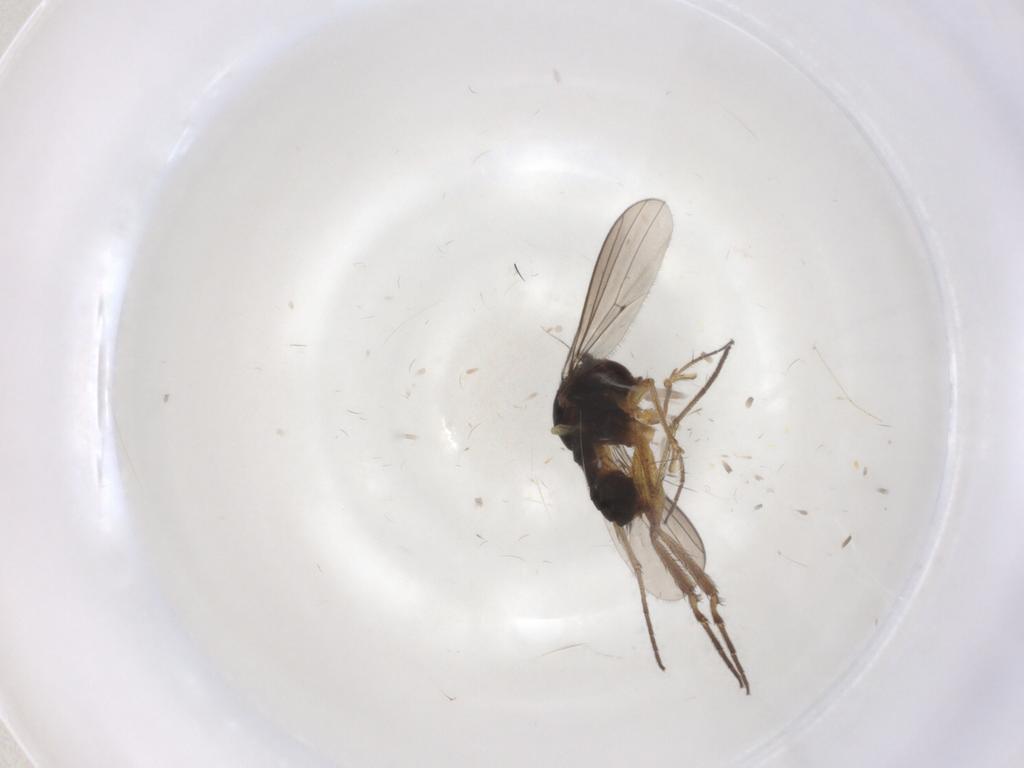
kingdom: Animalia
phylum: Arthropoda
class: Insecta
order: Diptera
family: Dolichopodidae
